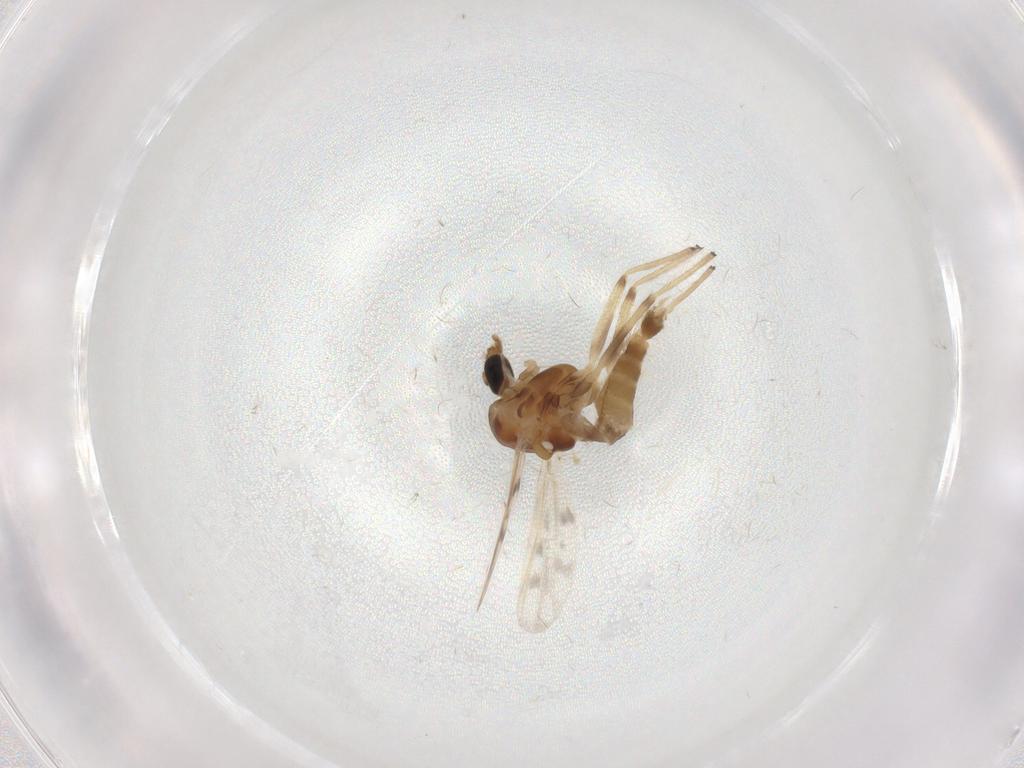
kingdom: Animalia
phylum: Arthropoda
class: Insecta
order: Diptera
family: Chironomidae
